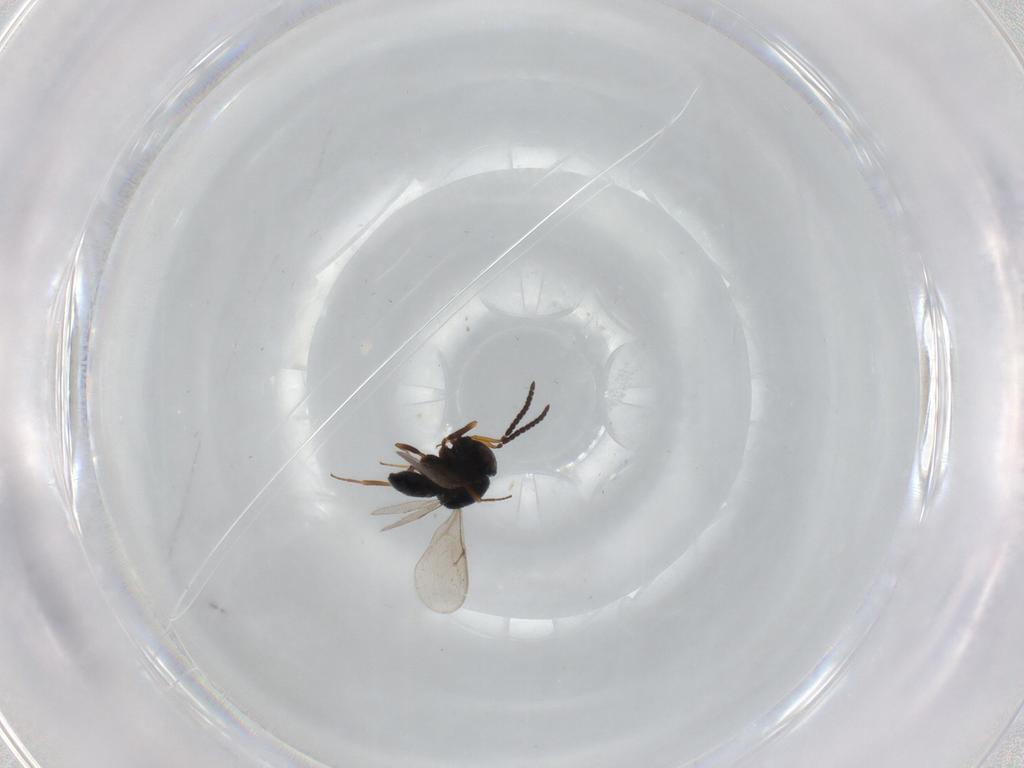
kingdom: Animalia
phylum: Arthropoda
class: Insecta
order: Hymenoptera
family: Scelionidae
